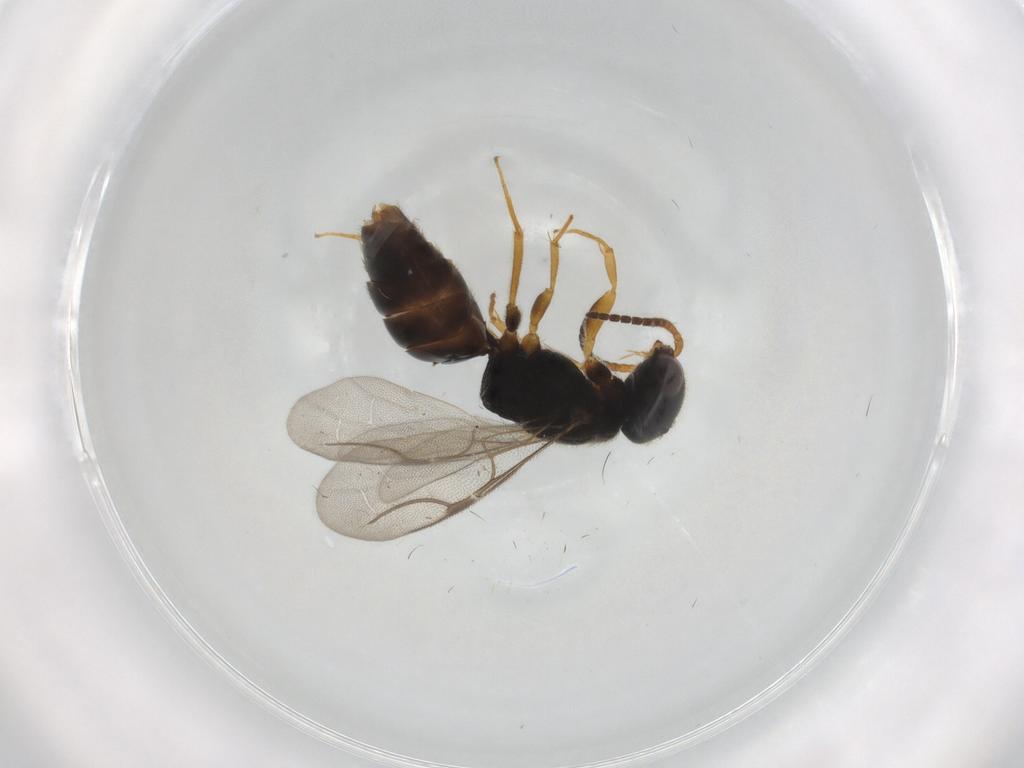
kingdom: Animalia
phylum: Arthropoda
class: Insecta
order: Hymenoptera
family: Bethylidae
